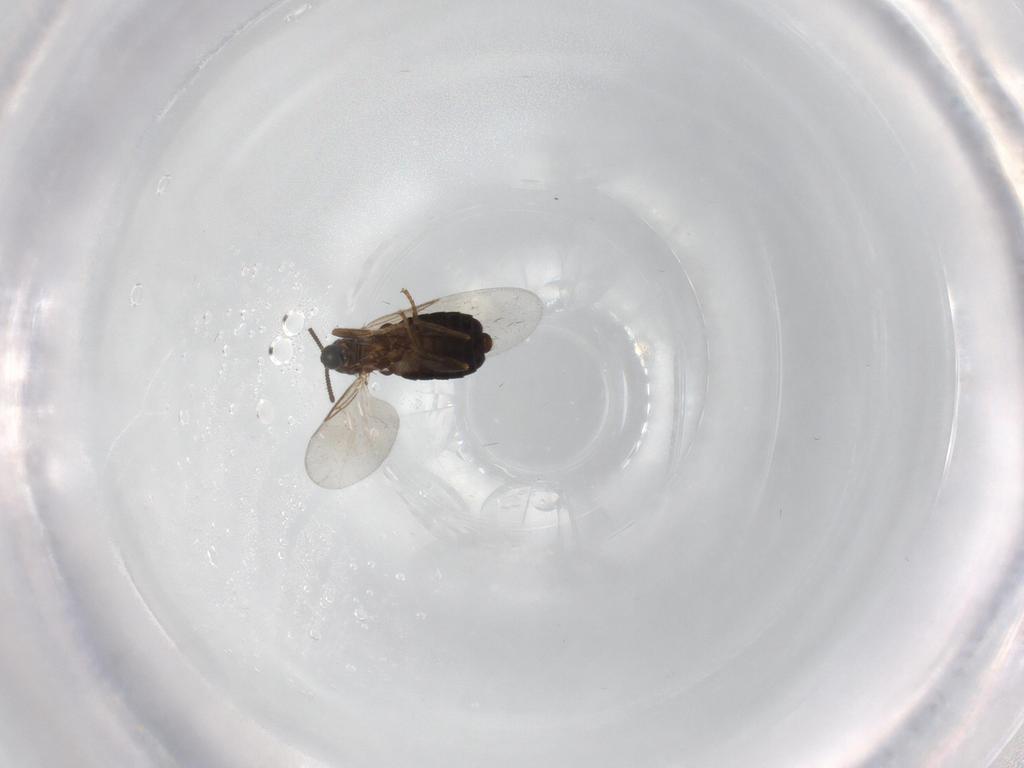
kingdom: Animalia
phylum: Arthropoda
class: Insecta
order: Diptera
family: Scatopsidae
